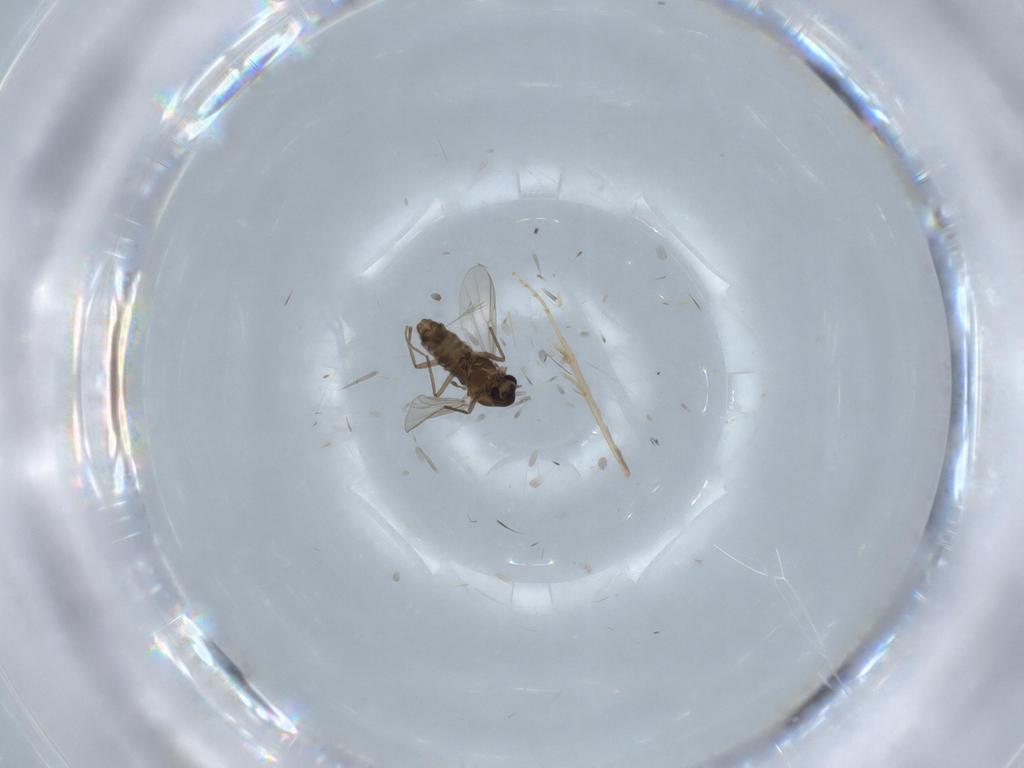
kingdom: Animalia
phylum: Arthropoda
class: Insecta
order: Diptera
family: Chironomidae
